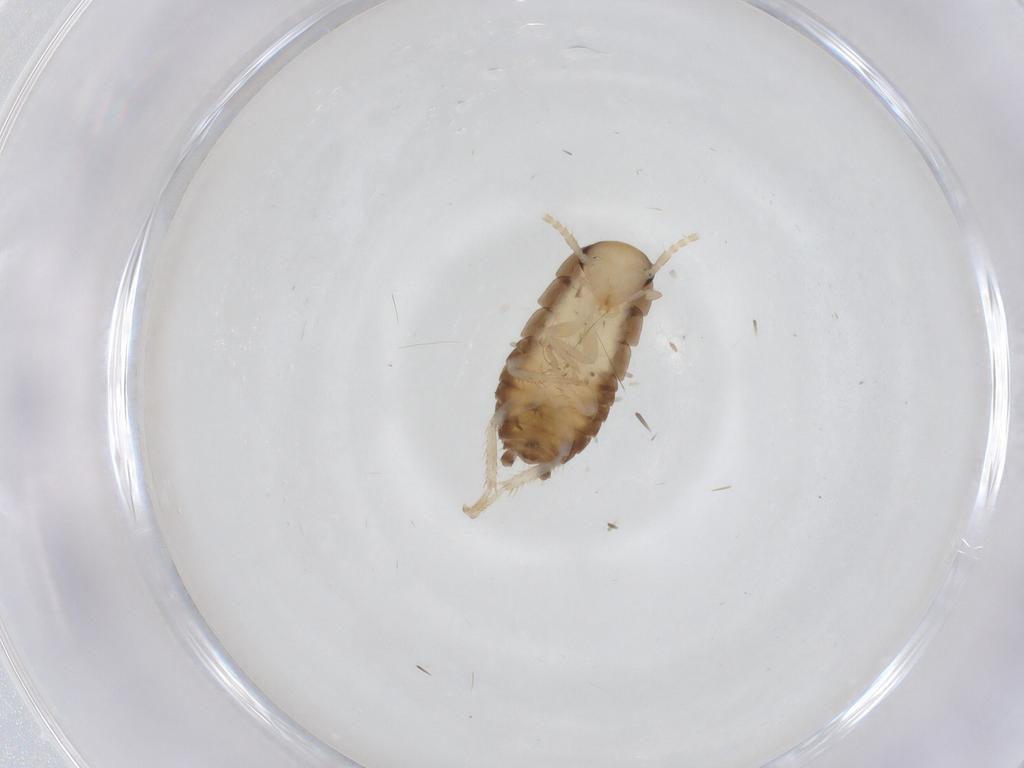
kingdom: Animalia
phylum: Arthropoda
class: Insecta
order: Blattodea
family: Ectobiidae
